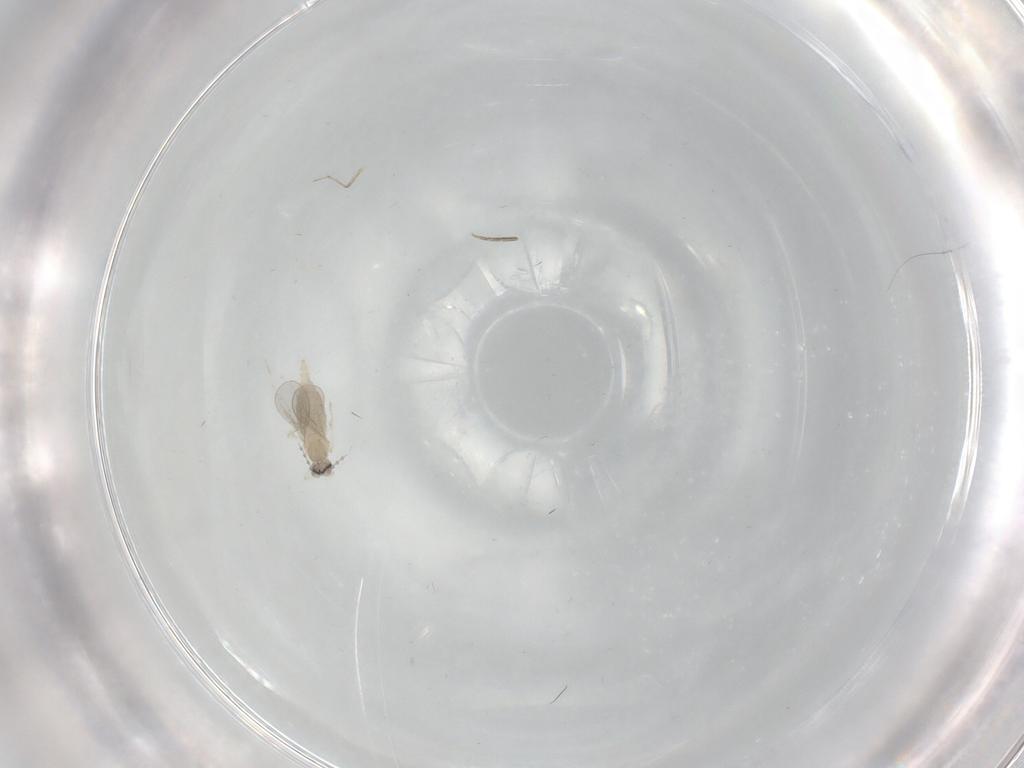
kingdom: Animalia
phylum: Arthropoda
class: Insecta
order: Diptera
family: Cecidomyiidae
